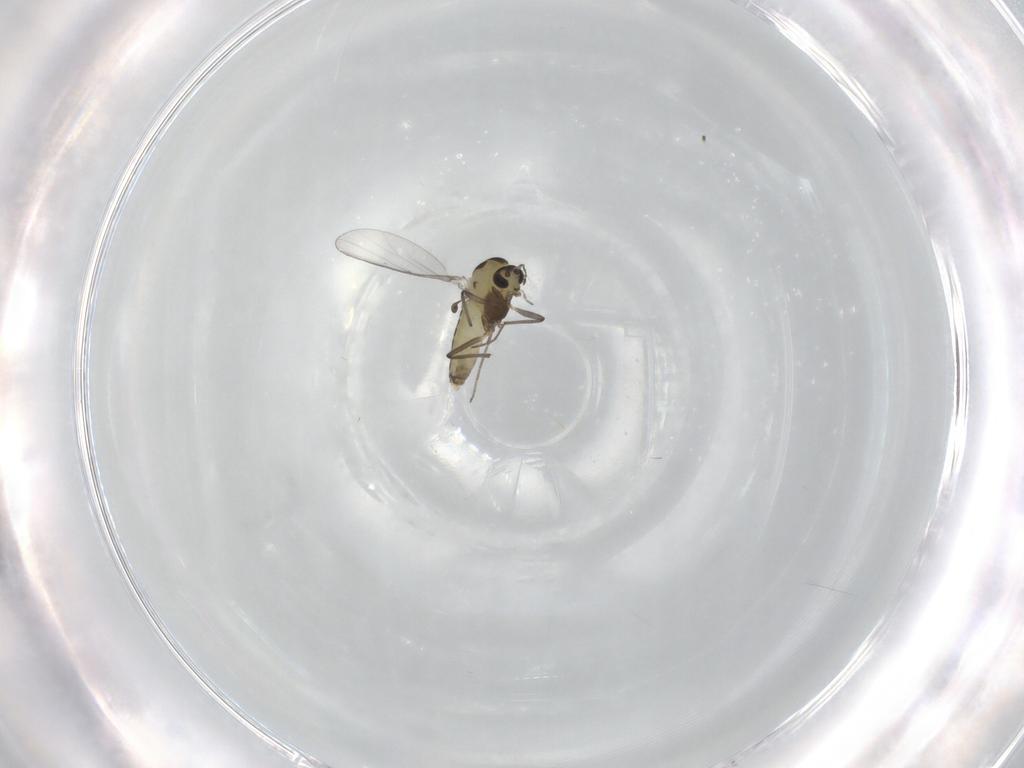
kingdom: Animalia
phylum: Arthropoda
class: Insecta
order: Diptera
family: Chironomidae
